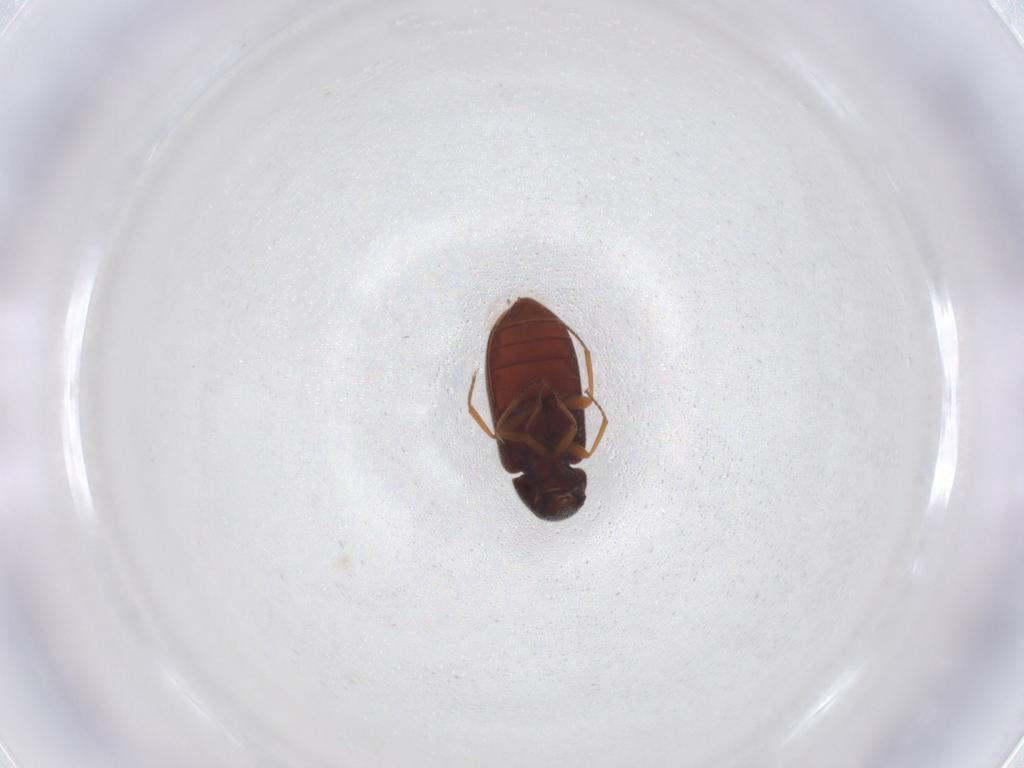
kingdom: Animalia
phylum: Arthropoda
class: Insecta
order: Coleoptera
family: Rhadalidae
